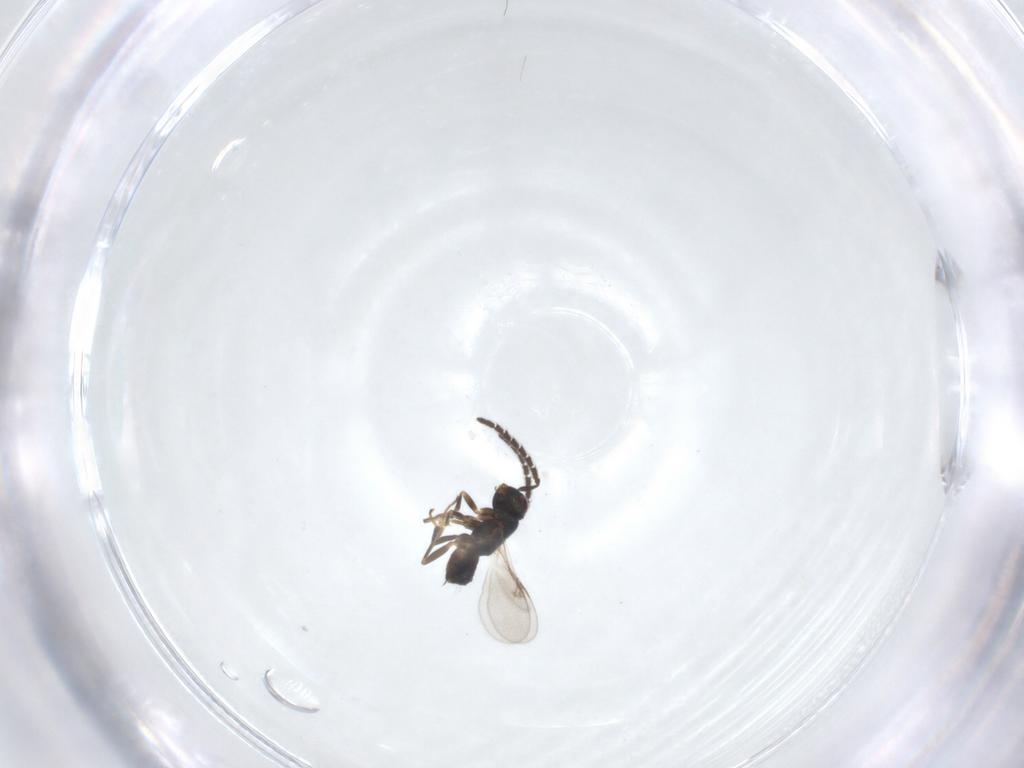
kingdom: Animalia
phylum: Arthropoda
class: Insecta
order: Hymenoptera
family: Encyrtidae
